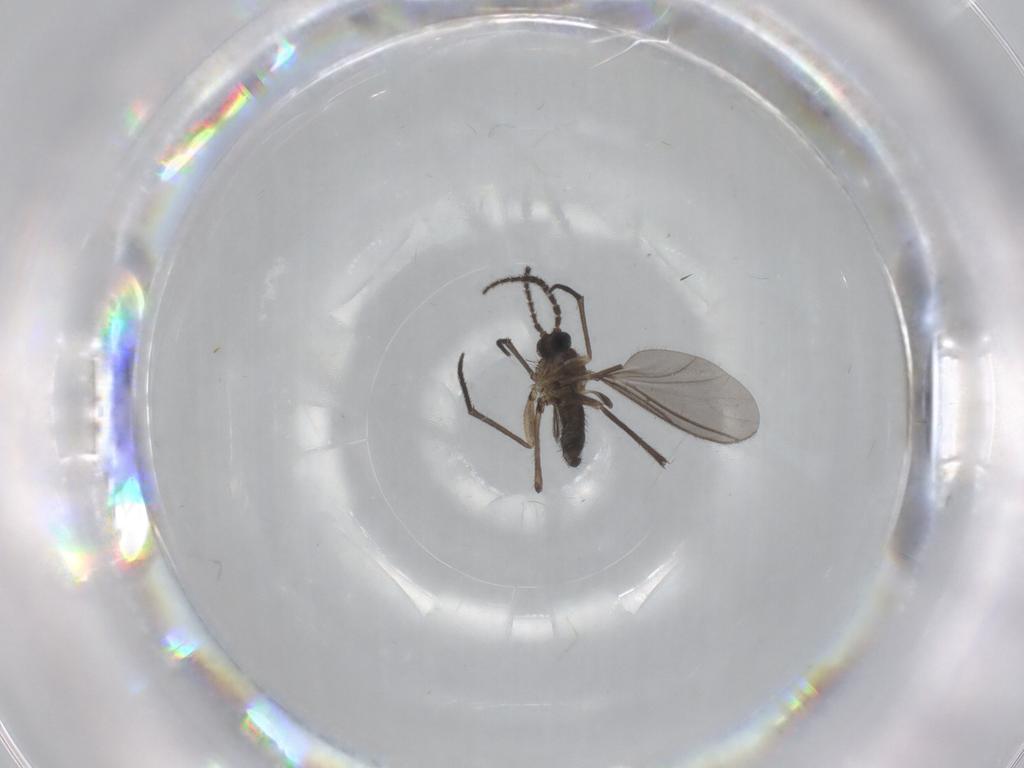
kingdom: Animalia
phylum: Arthropoda
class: Insecta
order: Diptera
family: Sciaridae
